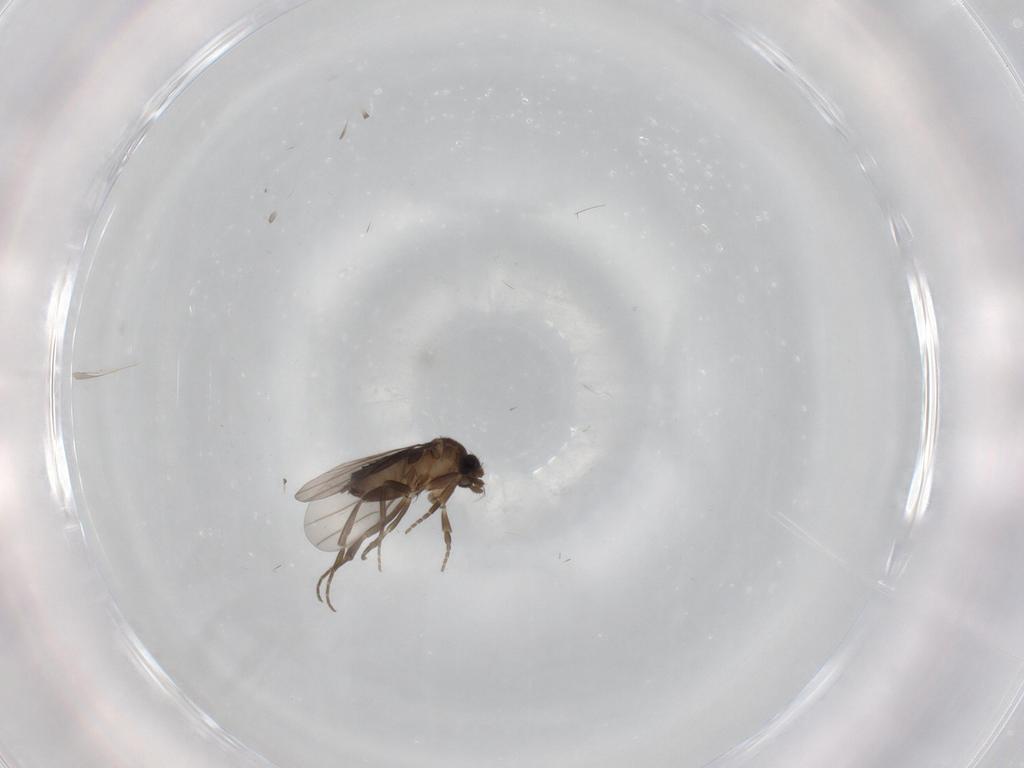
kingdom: Animalia
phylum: Arthropoda
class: Insecta
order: Diptera
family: Phoridae
